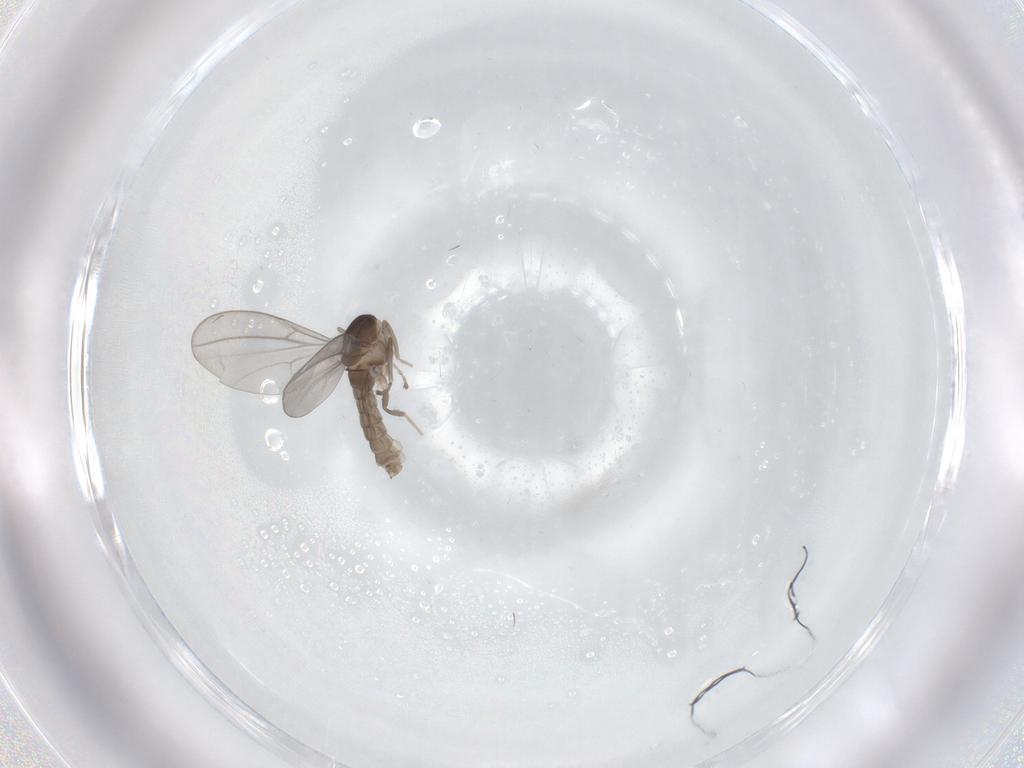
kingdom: Animalia
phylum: Arthropoda
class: Insecta
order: Diptera
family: Cecidomyiidae
